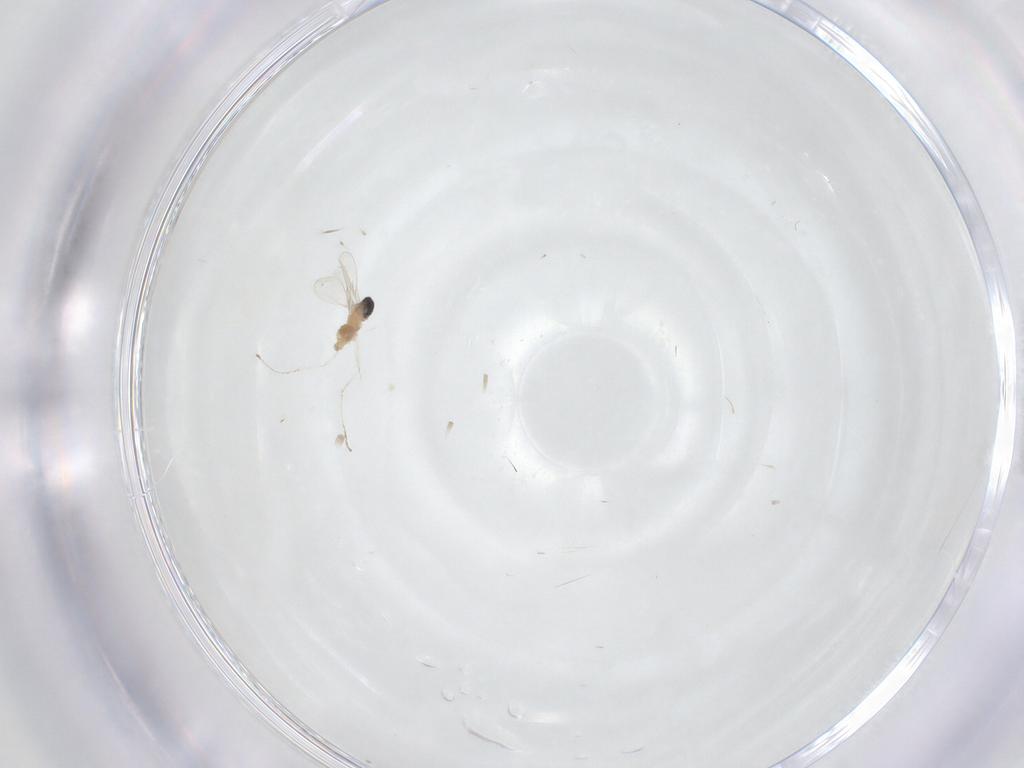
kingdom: Animalia
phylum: Arthropoda
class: Insecta
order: Diptera
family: Cecidomyiidae
